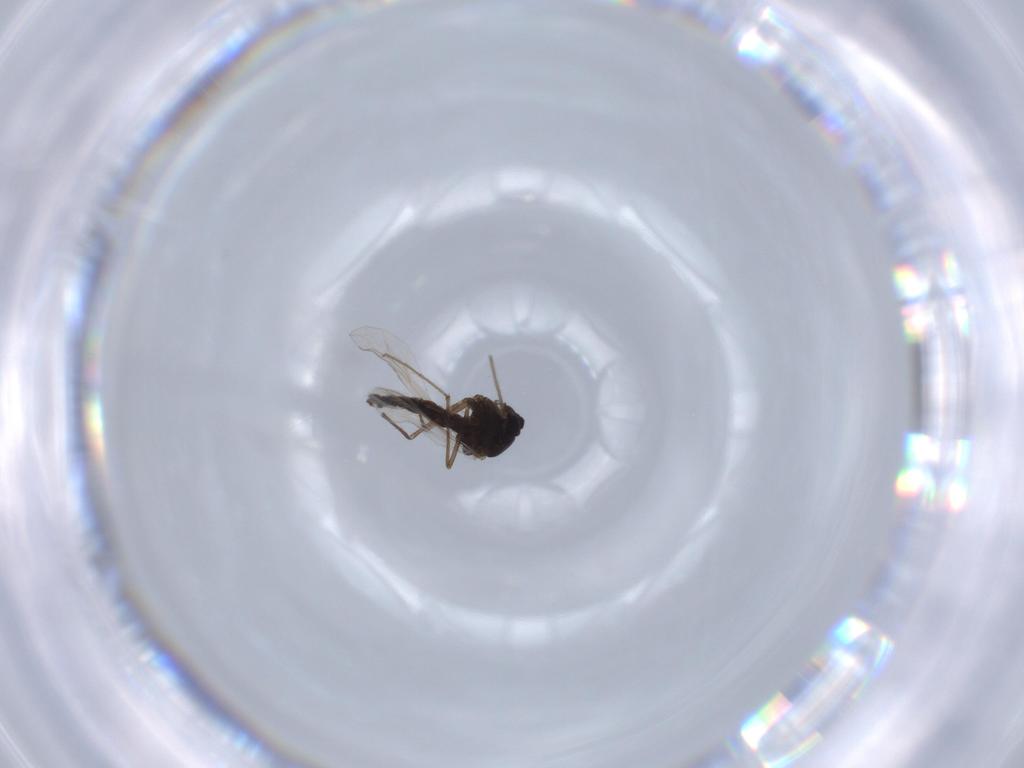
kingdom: Animalia
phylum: Arthropoda
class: Insecta
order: Diptera
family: Chironomidae
